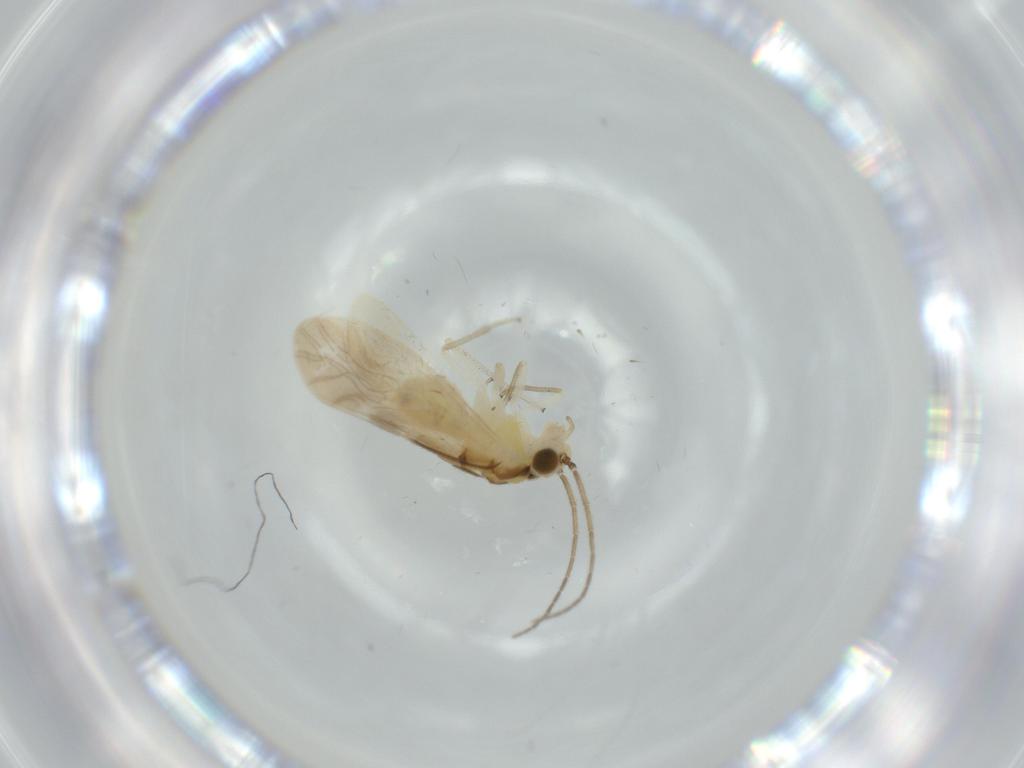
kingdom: Animalia
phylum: Arthropoda
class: Insecta
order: Psocodea
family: Caeciliusidae
